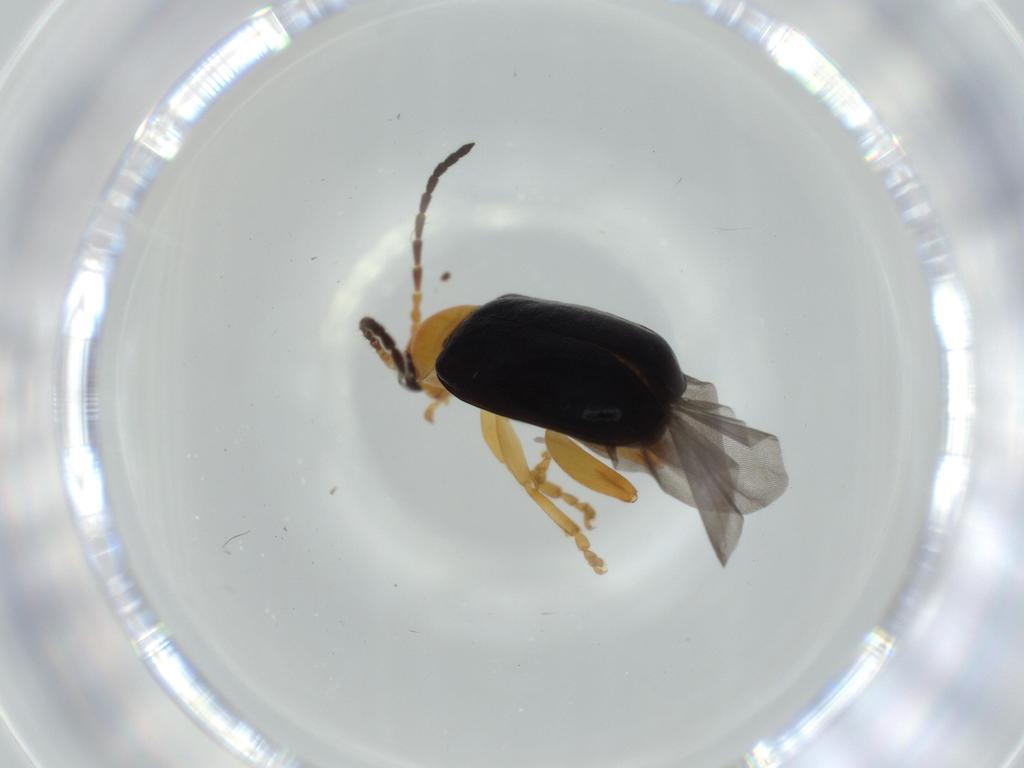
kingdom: Animalia
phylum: Arthropoda
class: Insecta
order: Coleoptera
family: Chrysomelidae
